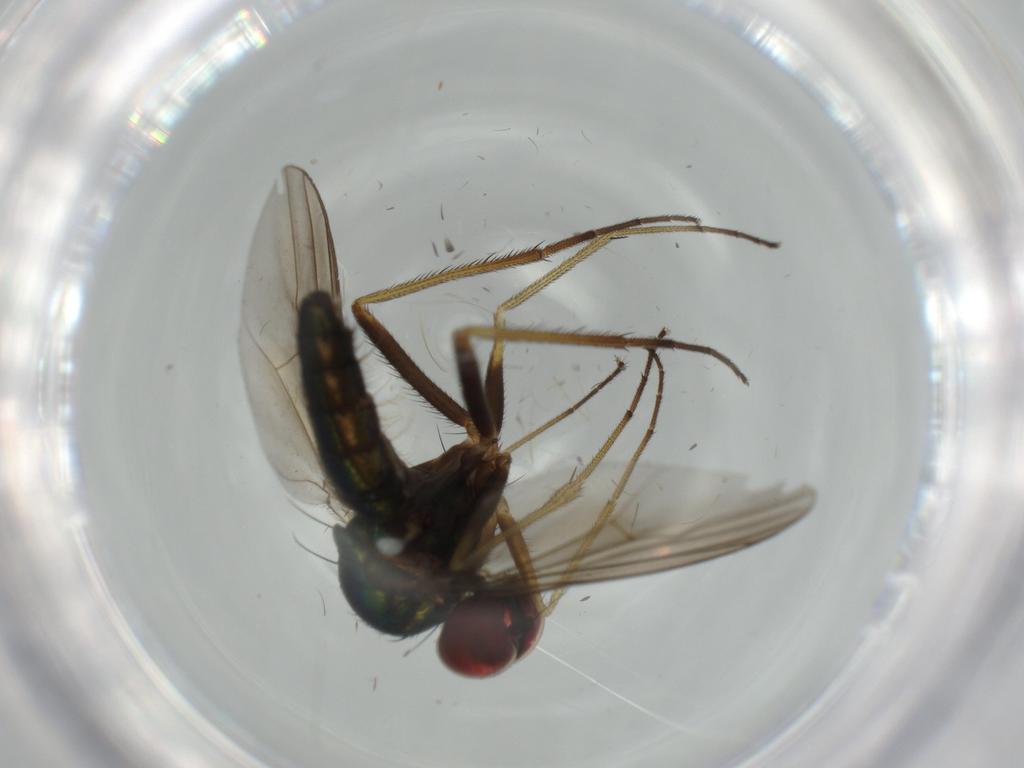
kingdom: Animalia
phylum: Arthropoda
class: Insecta
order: Diptera
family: Dolichopodidae
